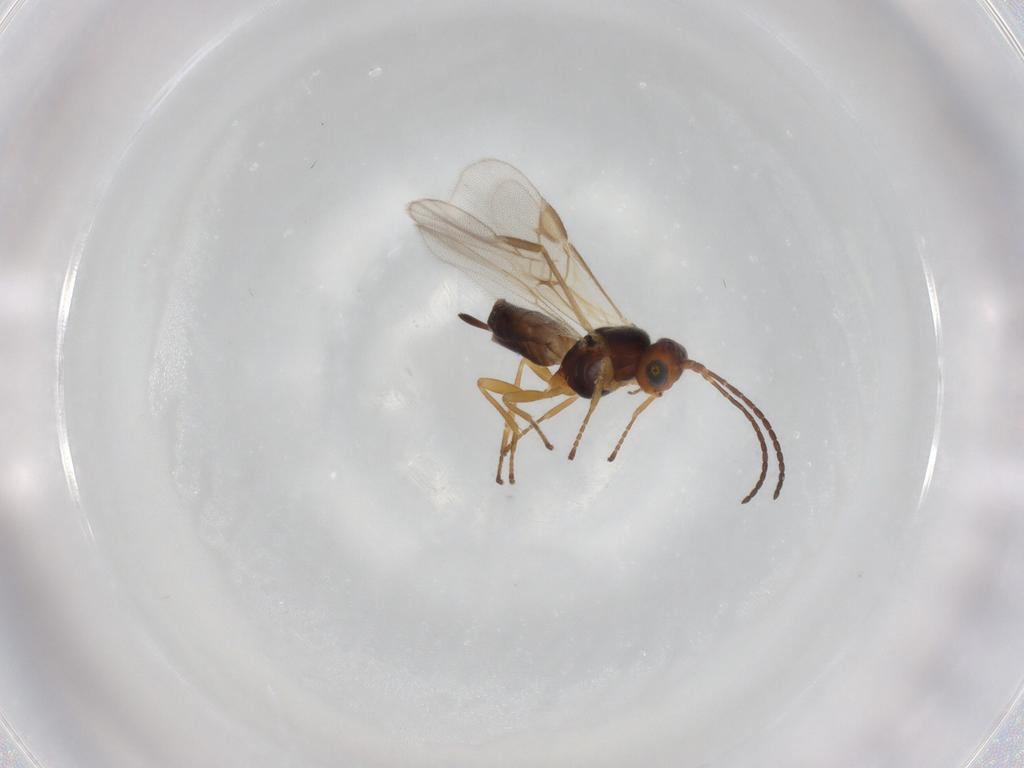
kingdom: Animalia
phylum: Arthropoda
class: Insecta
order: Hymenoptera
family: Braconidae
